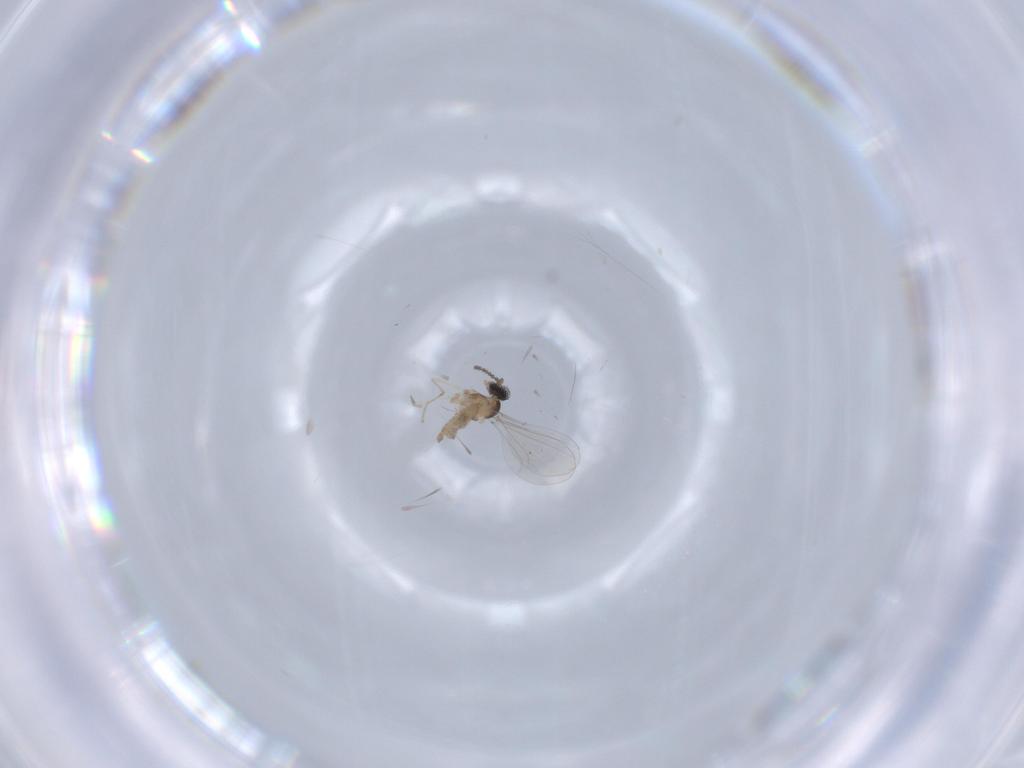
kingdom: Animalia
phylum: Arthropoda
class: Insecta
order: Diptera
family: Cecidomyiidae
